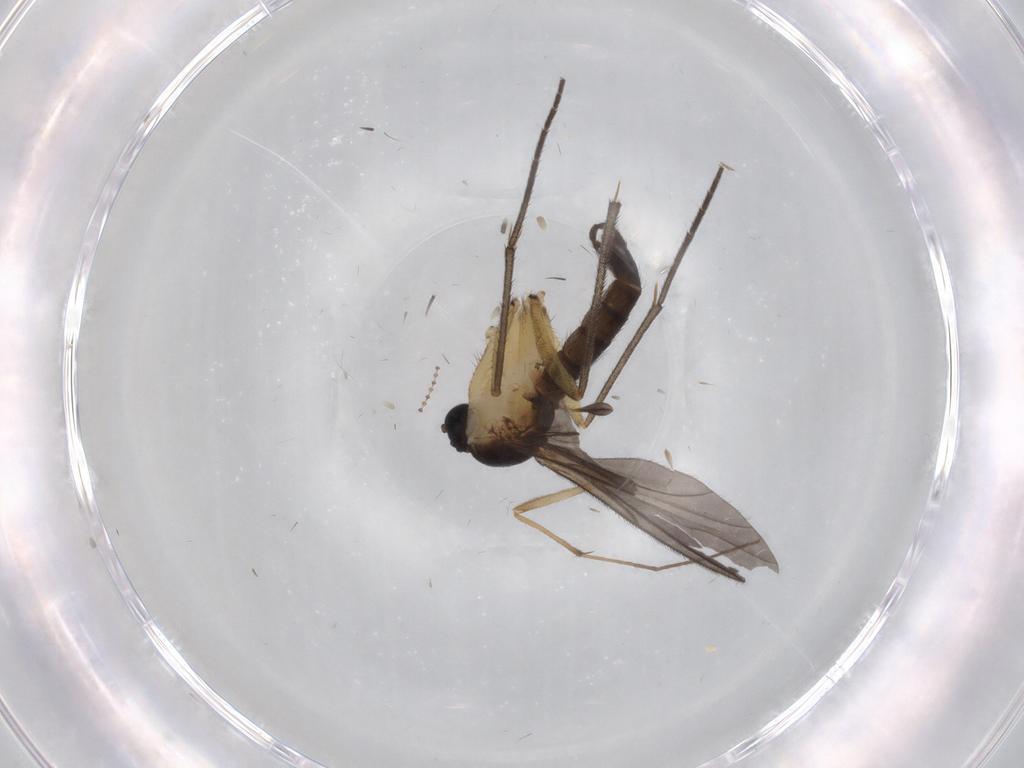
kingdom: Animalia
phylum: Arthropoda
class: Insecta
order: Diptera
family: Sciaridae
